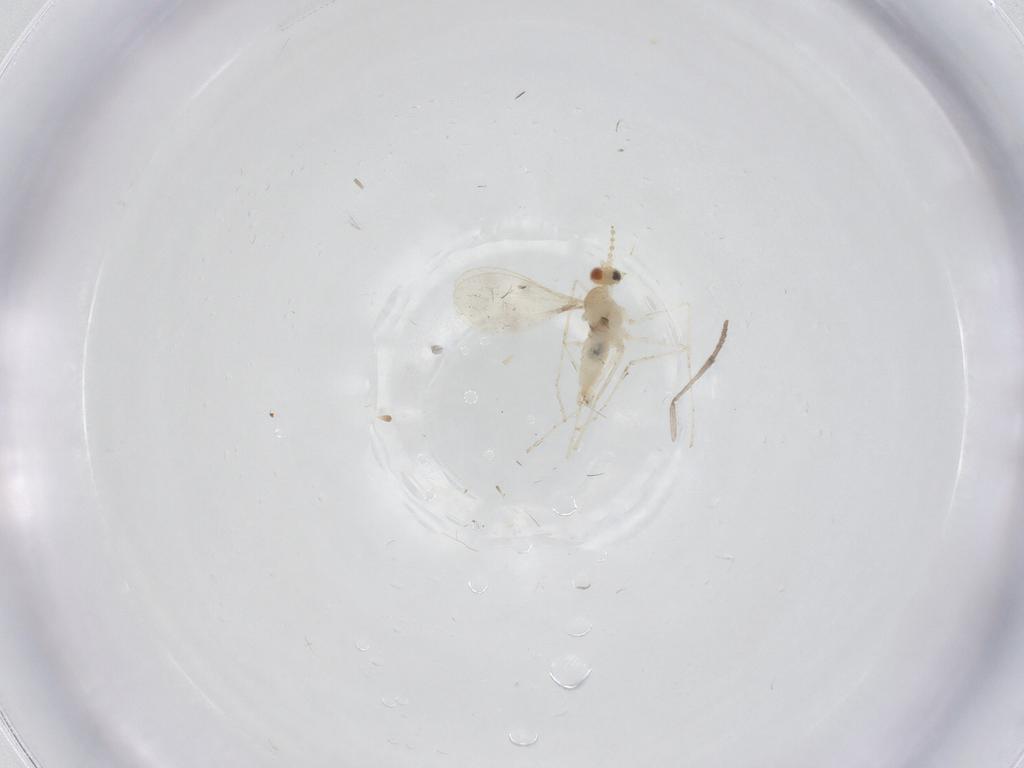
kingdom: Animalia
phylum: Arthropoda
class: Insecta
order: Diptera
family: Cecidomyiidae
